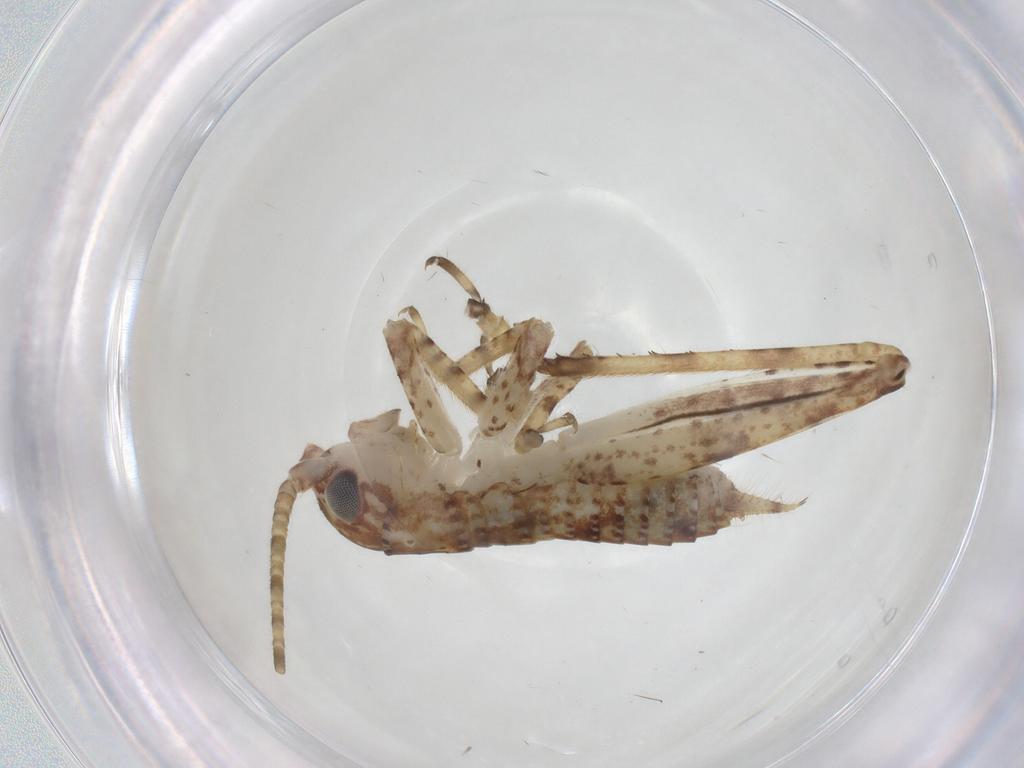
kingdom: Animalia
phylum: Arthropoda
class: Insecta
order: Orthoptera
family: Gryllidae
